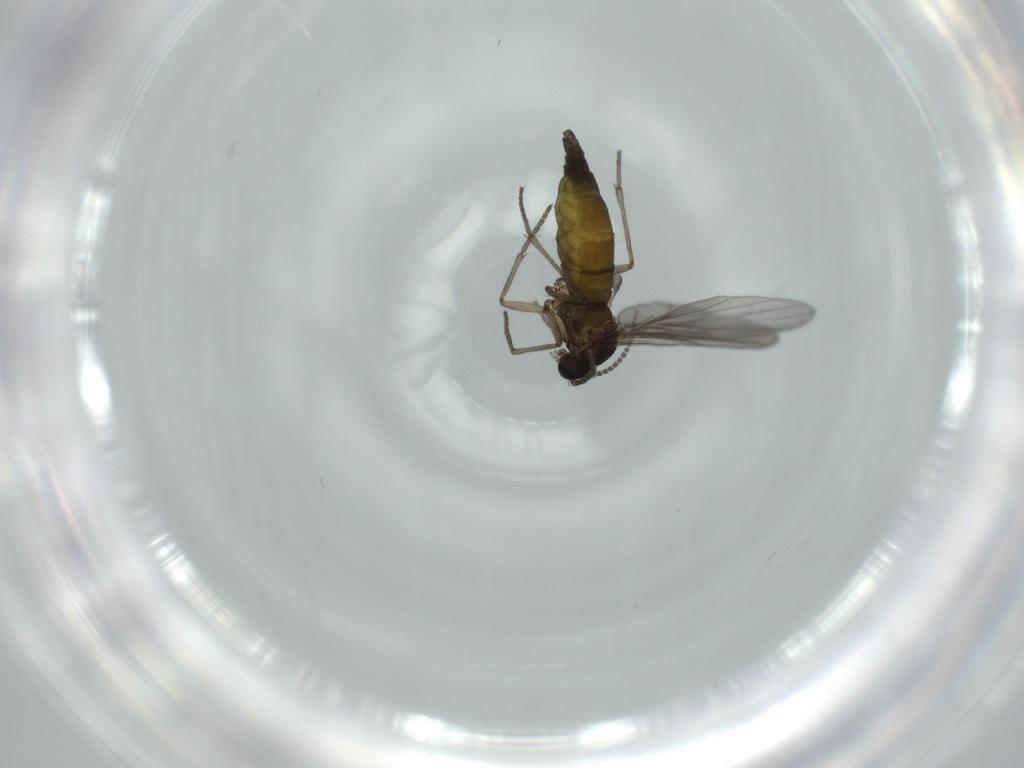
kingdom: Animalia
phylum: Arthropoda
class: Insecta
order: Diptera
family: Sciaridae
